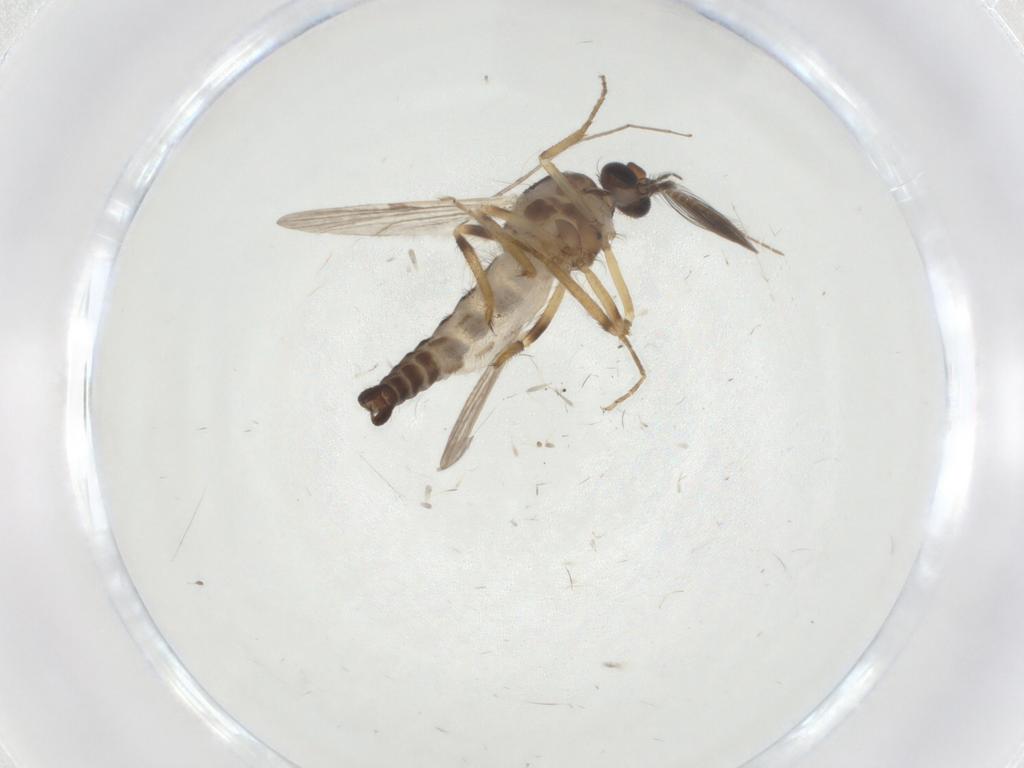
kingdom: Animalia
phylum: Arthropoda
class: Insecta
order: Diptera
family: Ceratopogonidae
